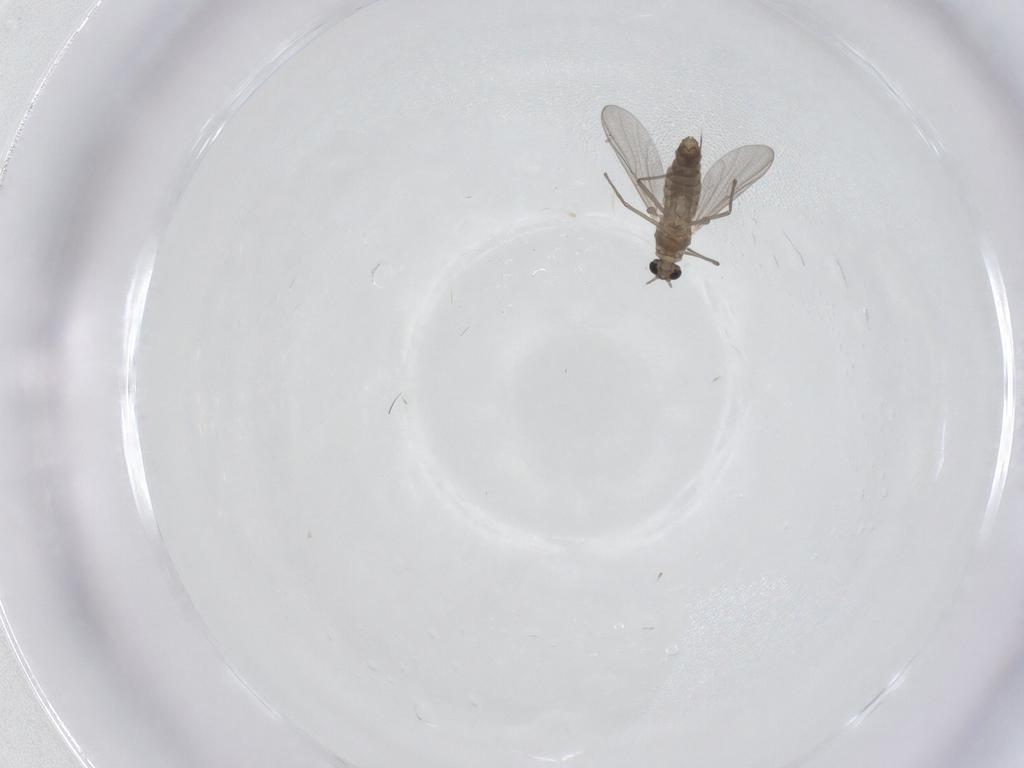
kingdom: Animalia
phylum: Arthropoda
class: Insecta
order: Diptera
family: Chironomidae
